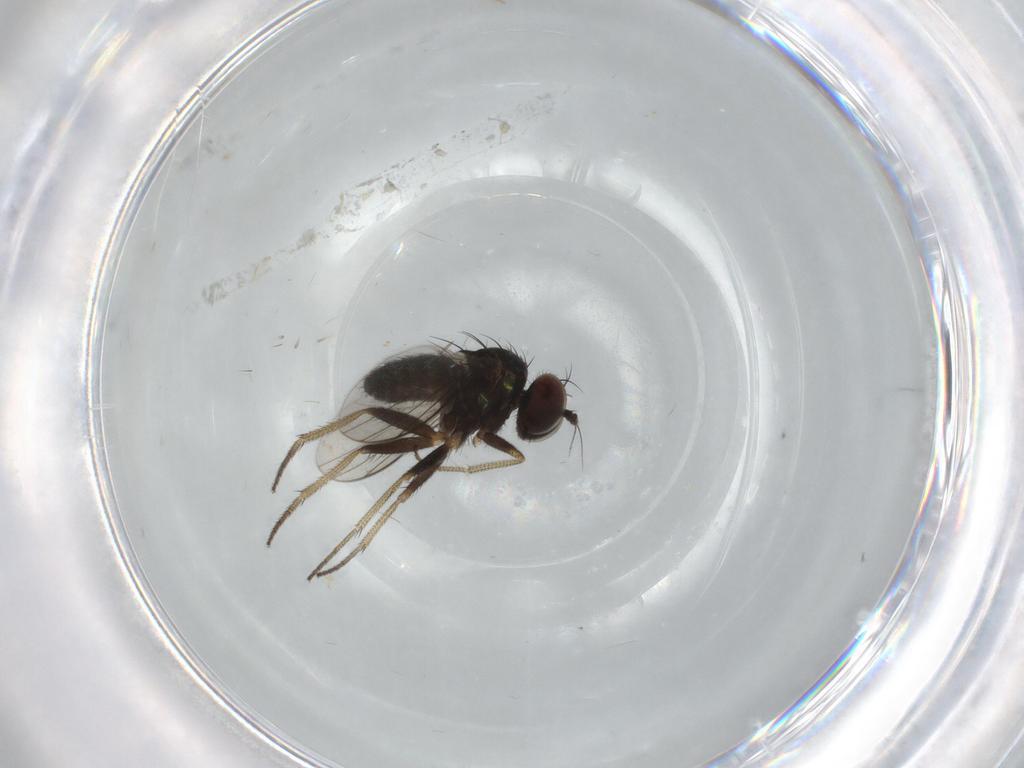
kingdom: Animalia
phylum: Arthropoda
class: Insecta
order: Diptera
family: Dolichopodidae
